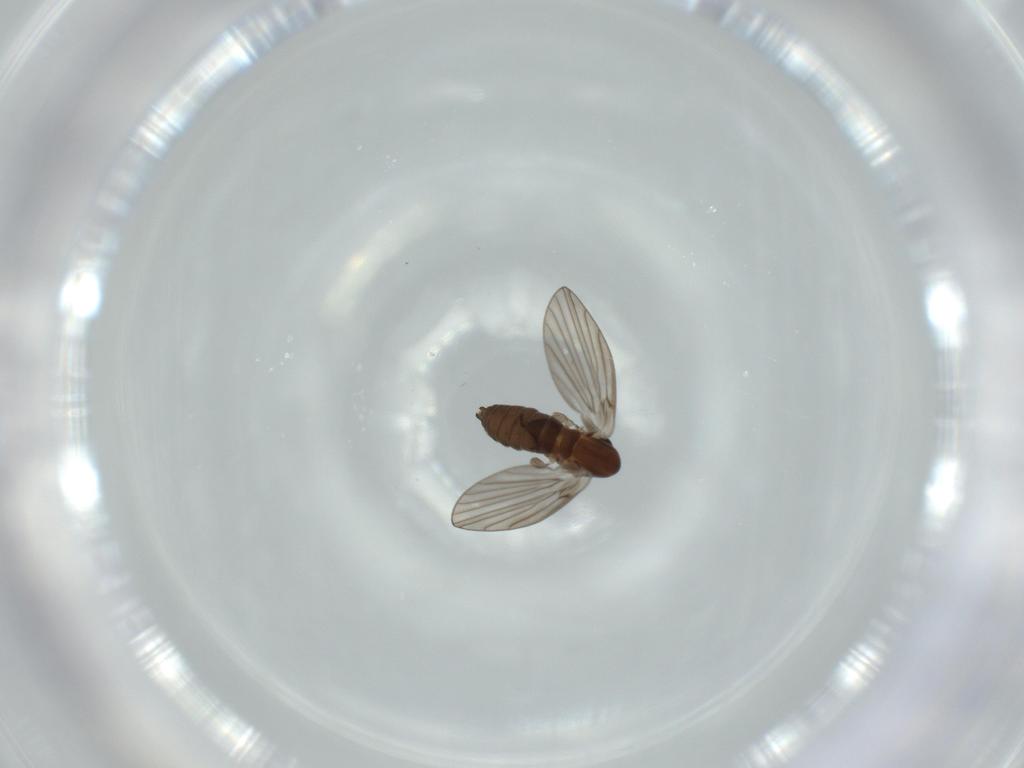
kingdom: Animalia
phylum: Arthropoda
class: Insecta
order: Diptera
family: Psychodidae
